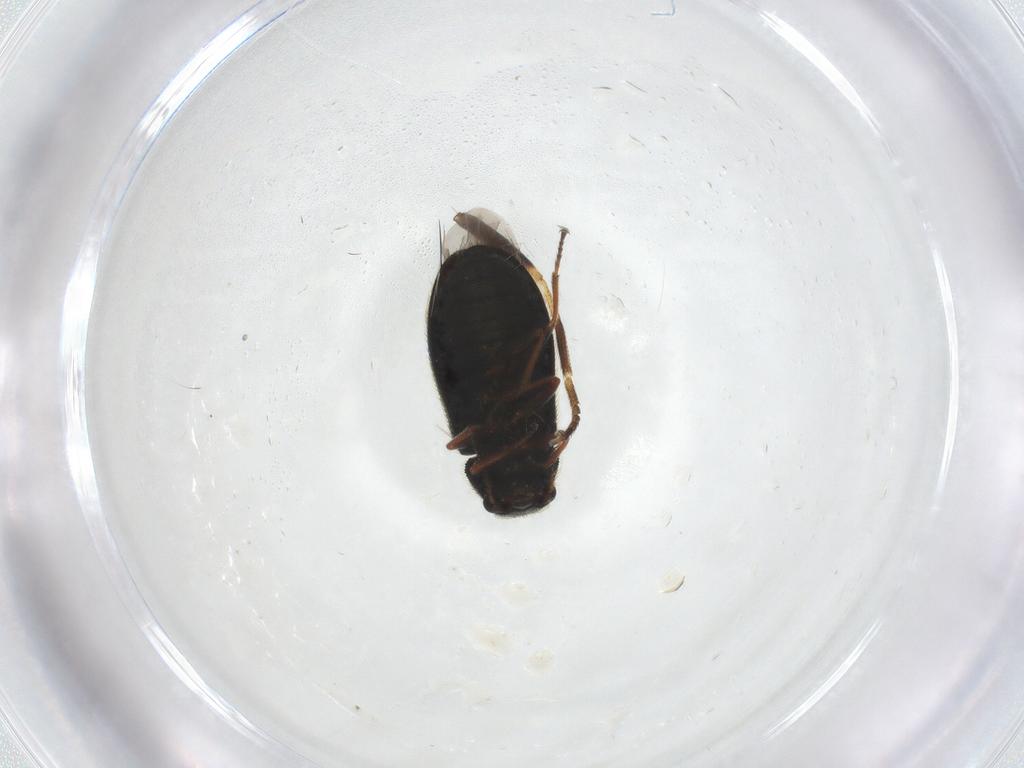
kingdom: Animalia
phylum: Arthropoda
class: Insecta
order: Coleoptera
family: Melyridae
